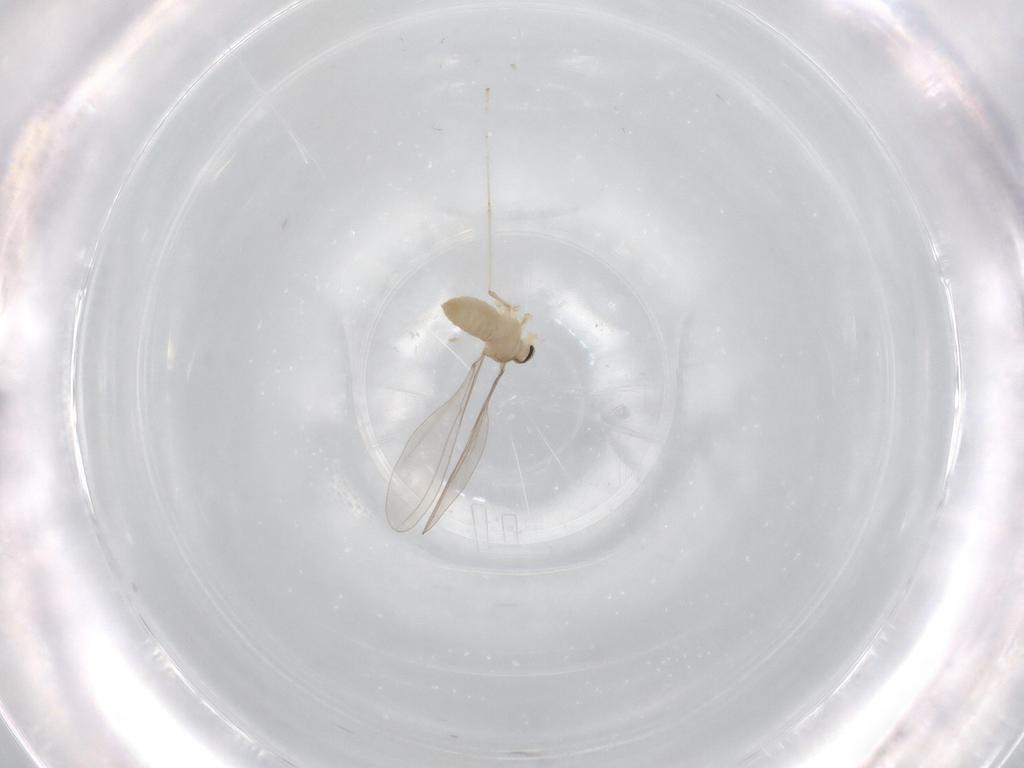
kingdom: Animalia
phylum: Arthropoda
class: Insecta
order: Diptera
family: Cecidomyiidae
